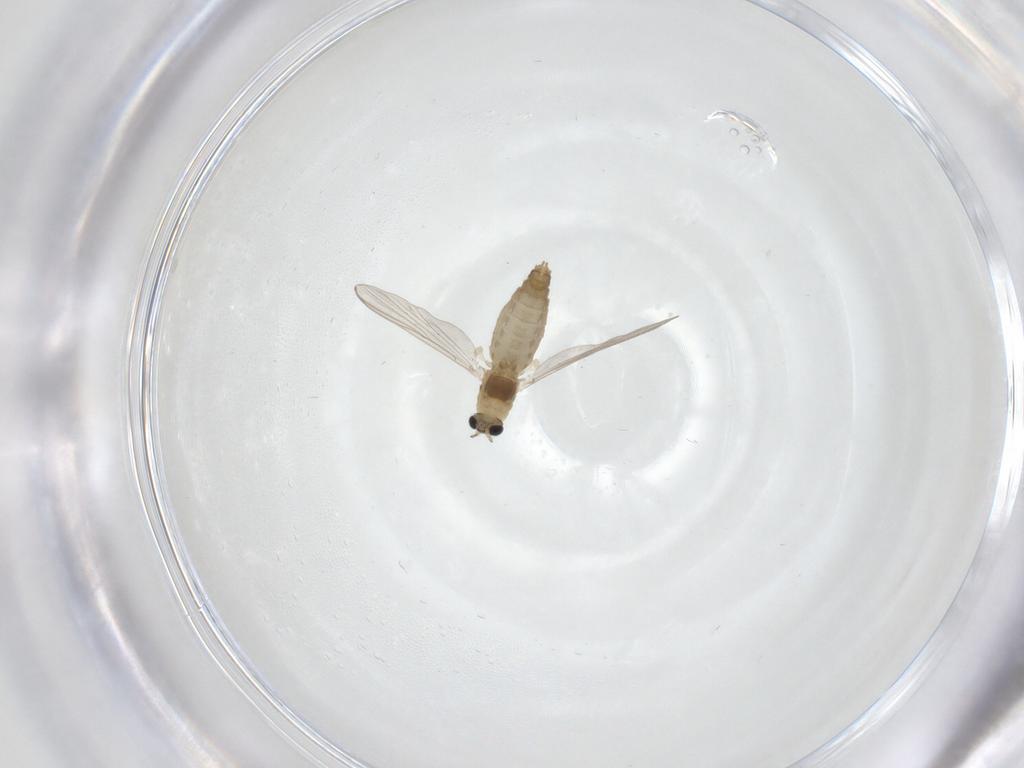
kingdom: Animalia
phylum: Arthropoda
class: Insecta
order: Diptera
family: Chironomidae
